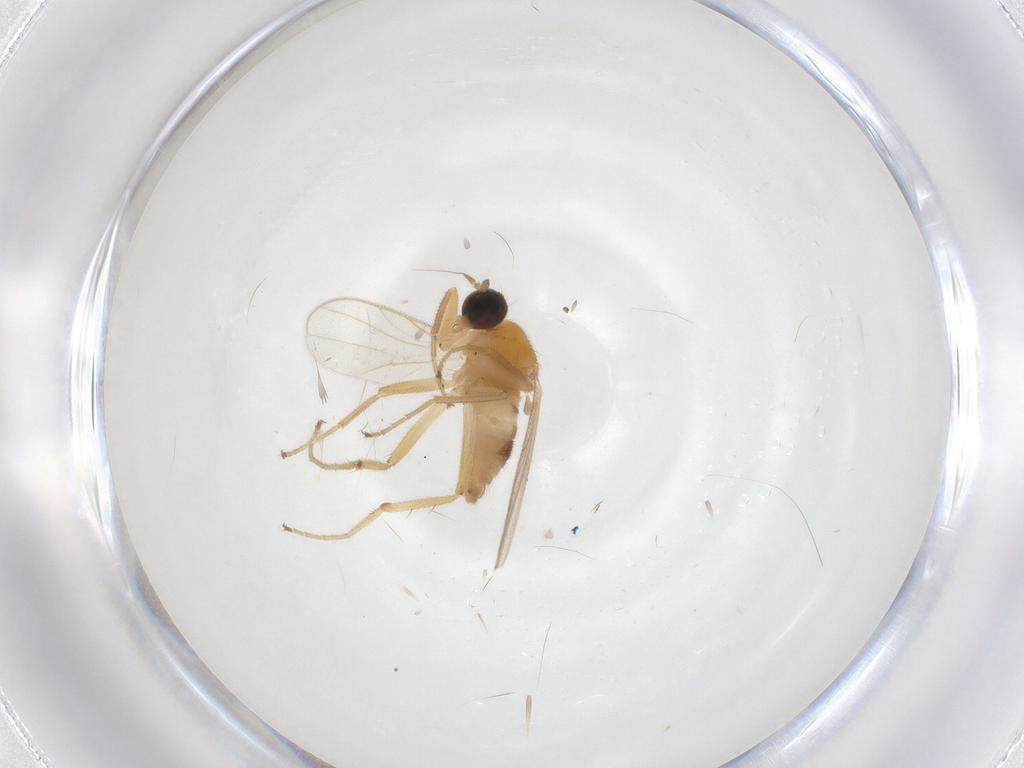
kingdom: Animalia
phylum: Arthropoda
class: Insecta
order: Diptera
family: Hybotidae
